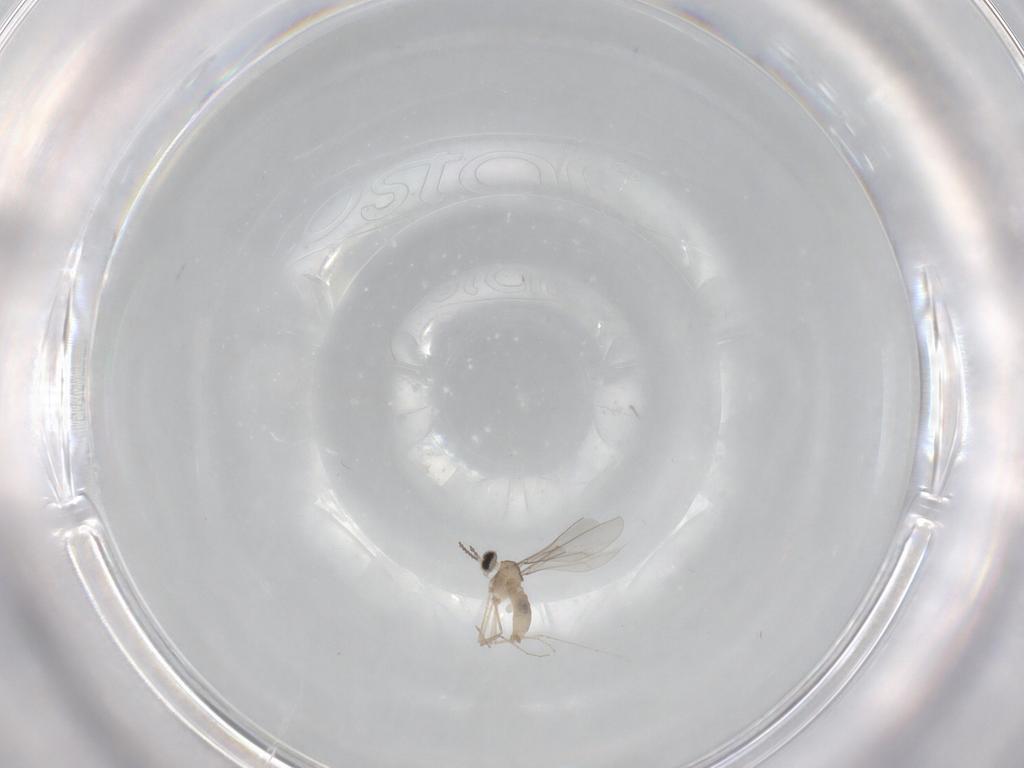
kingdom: Animalia
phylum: Arthropoda
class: Insecta
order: Diptera
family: Cecidomyiidae
